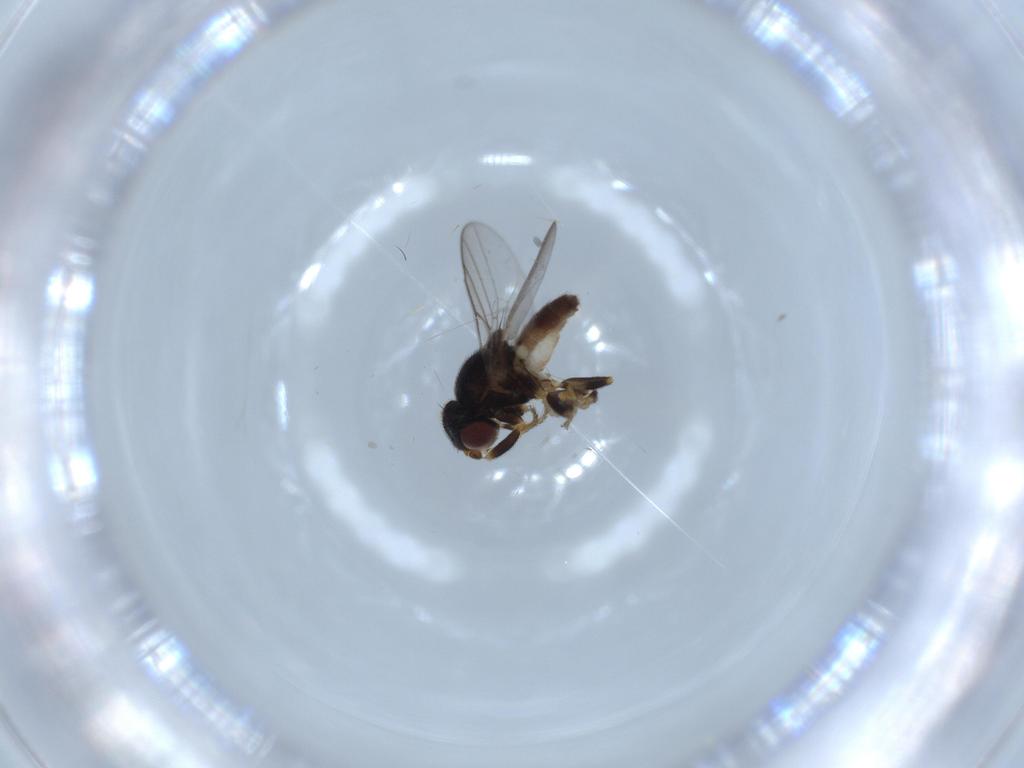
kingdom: Animalia
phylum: Arthropoda
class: Insecta
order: Diptera
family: Chloropidae
